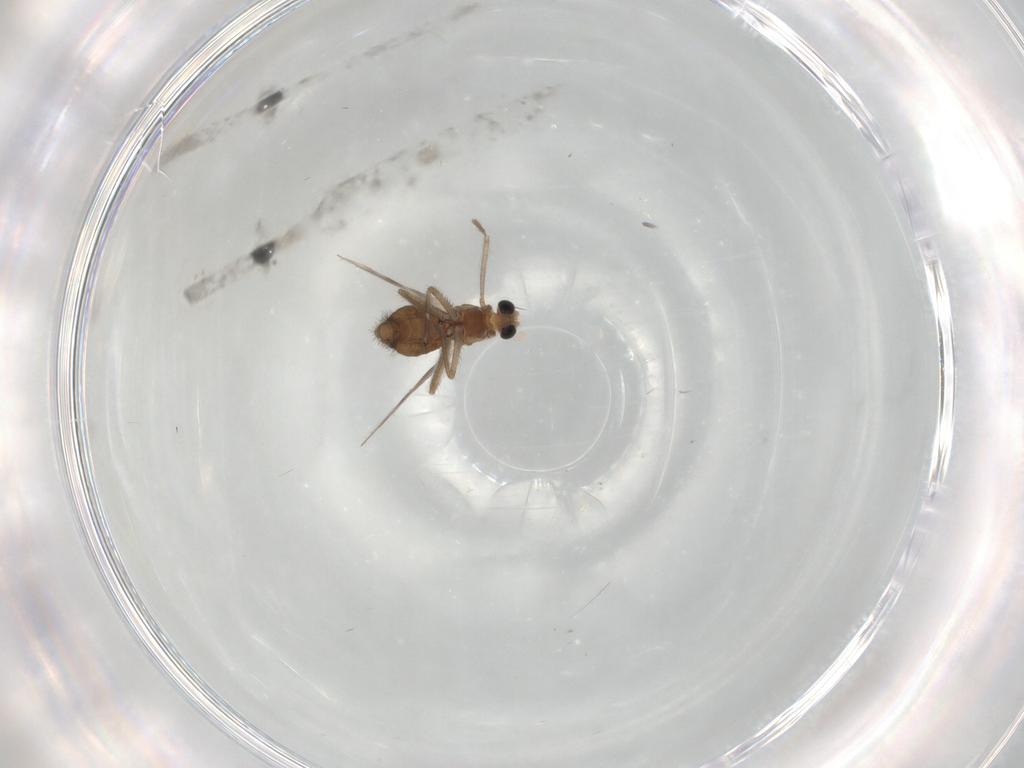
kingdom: Animalia
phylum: Arthropoda
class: Insecta
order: Diptera
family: Chironomidae
